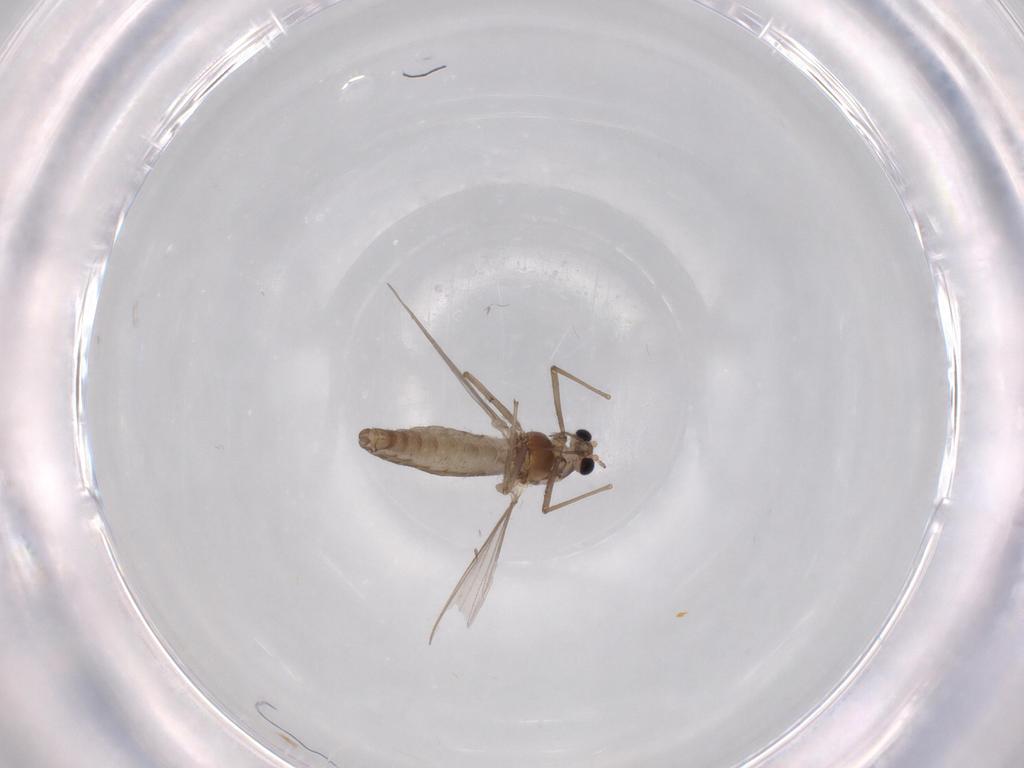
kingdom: Animalia
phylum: Arthropoda
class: Insecta
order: Diptera
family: Chironomidae
